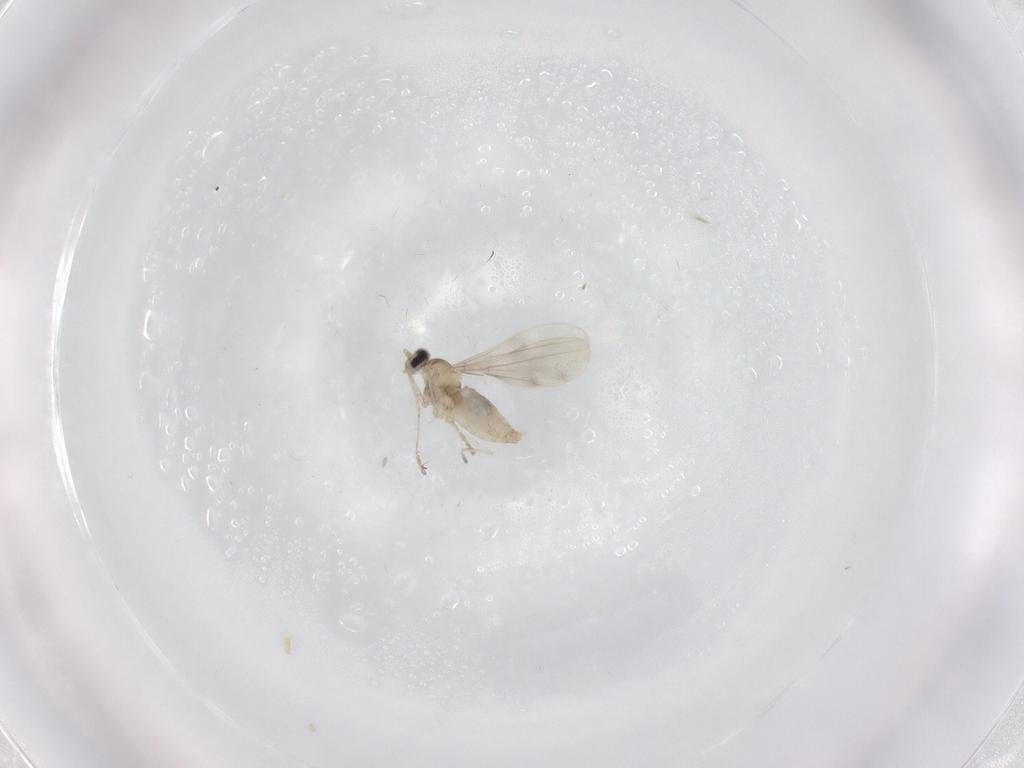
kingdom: Animalia
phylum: Arthropoda
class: Insecta
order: Diptera
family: Cecidomyiidae
